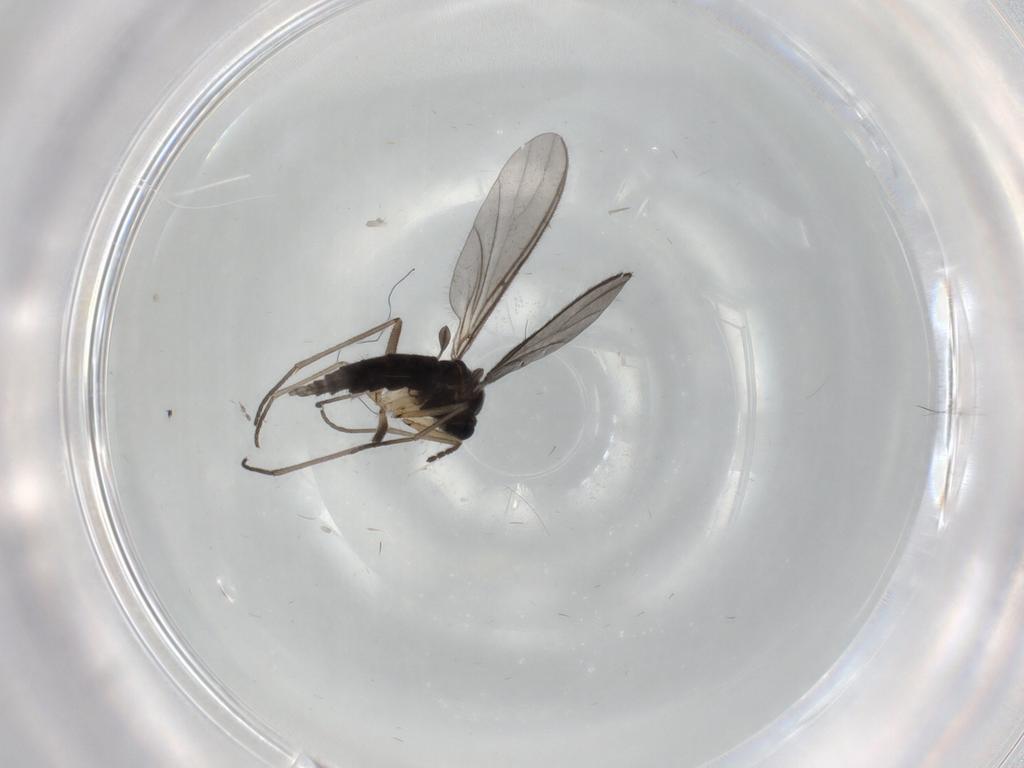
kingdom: Animalia
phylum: Arthropoda
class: Insecta
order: Diptera
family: Sciaridae
